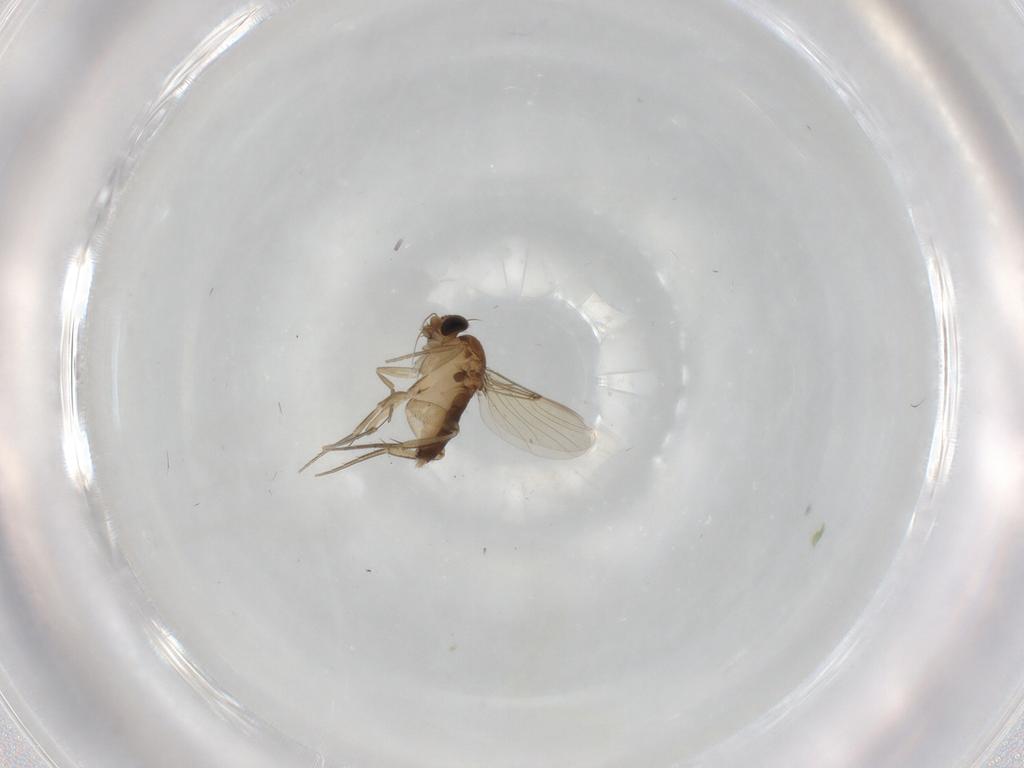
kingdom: Animalia
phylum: Arthropoda
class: Insecta
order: Diptera
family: Phoridae
